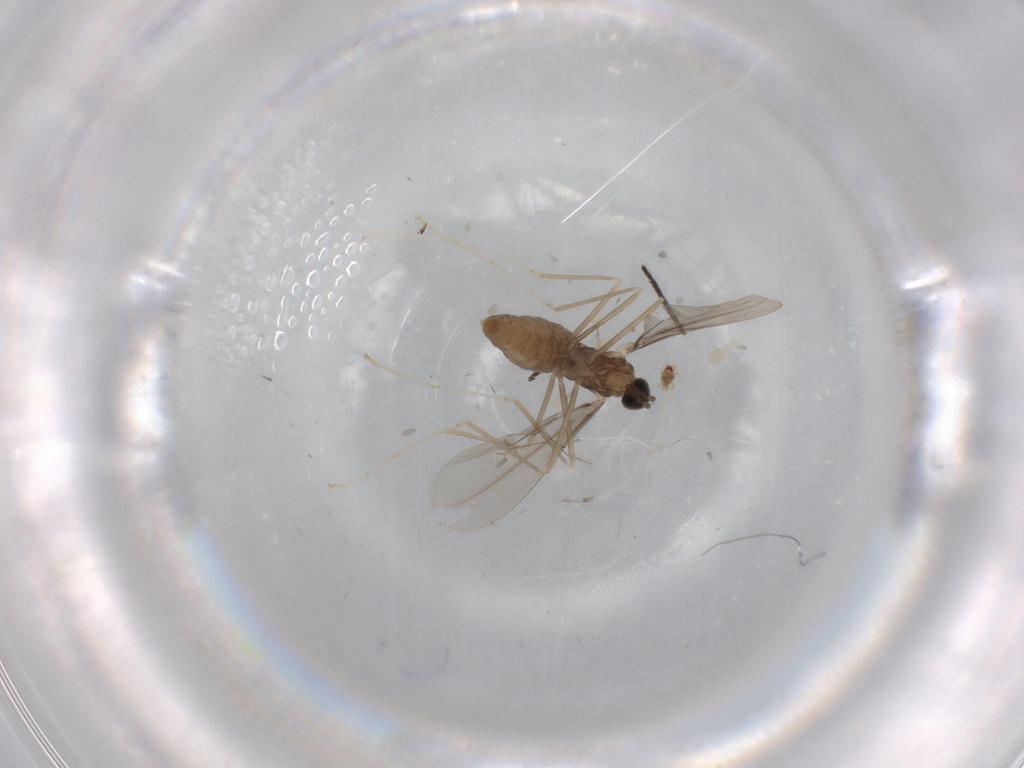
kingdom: Animalia
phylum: Arthropoda
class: Insecta
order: Diptera
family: Cecidomyiidae
